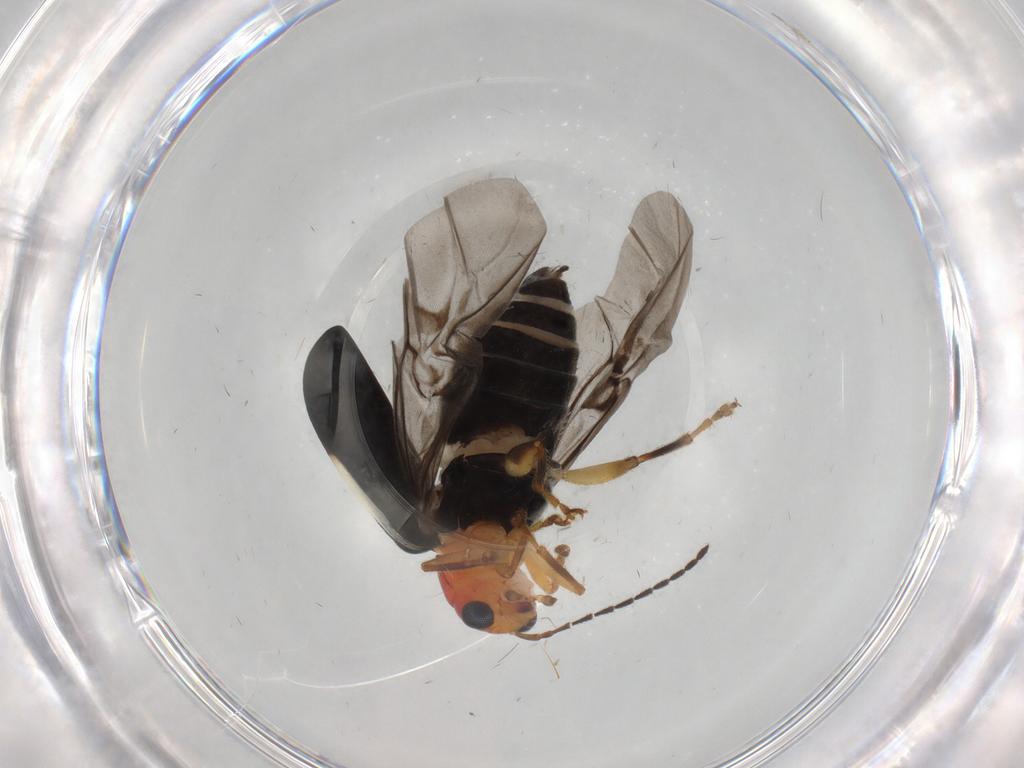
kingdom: Animalia
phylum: Arthropoda
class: Insecta
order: Coleoptera
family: Chrysomelidae
